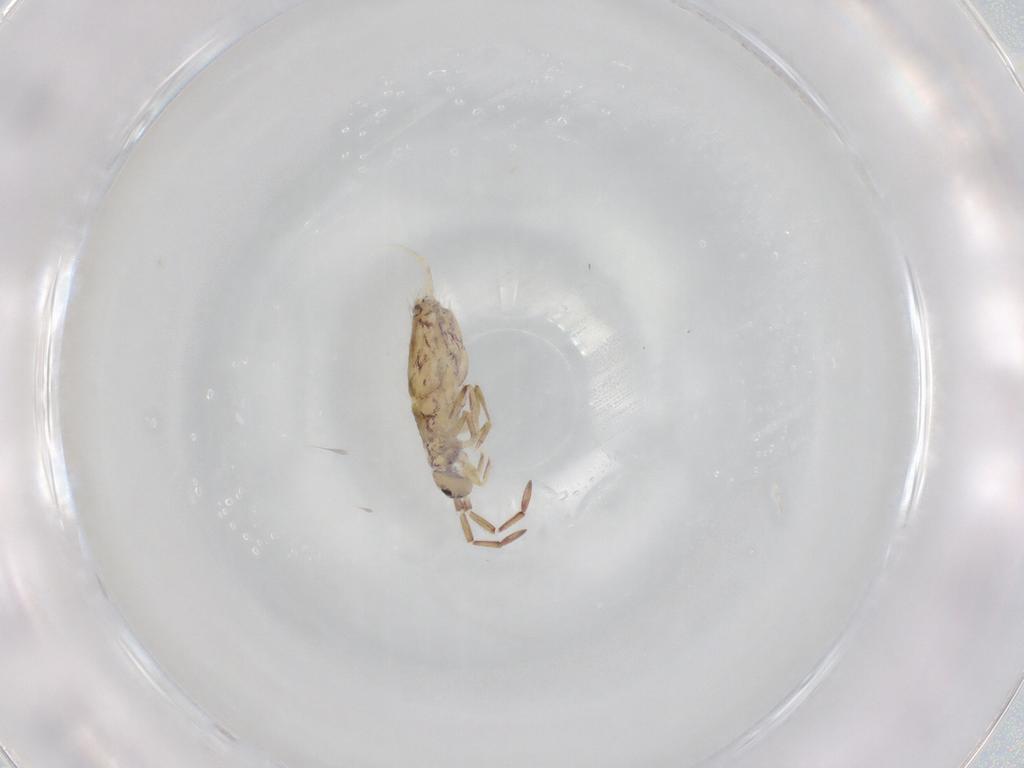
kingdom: Animalia
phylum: Arthropoda
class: Collembola
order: Entomobryomorpha
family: Entomobryidae
